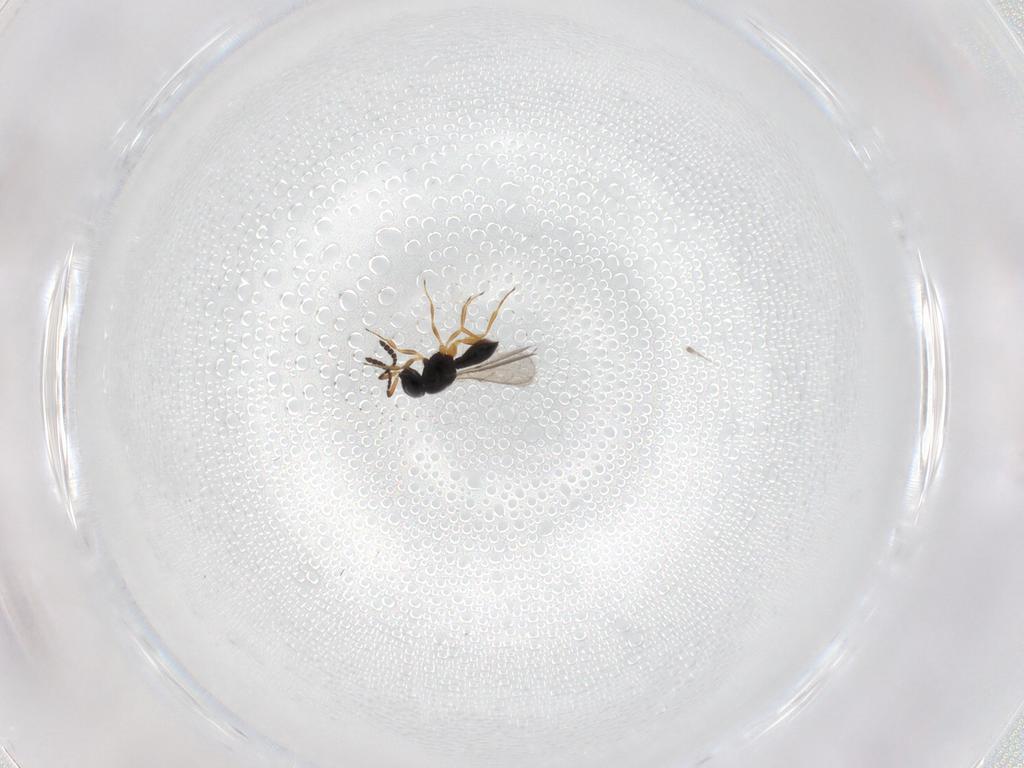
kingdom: Animalia
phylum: Arthropoda
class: Insecta
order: Hymenoptera
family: Scelionidae
